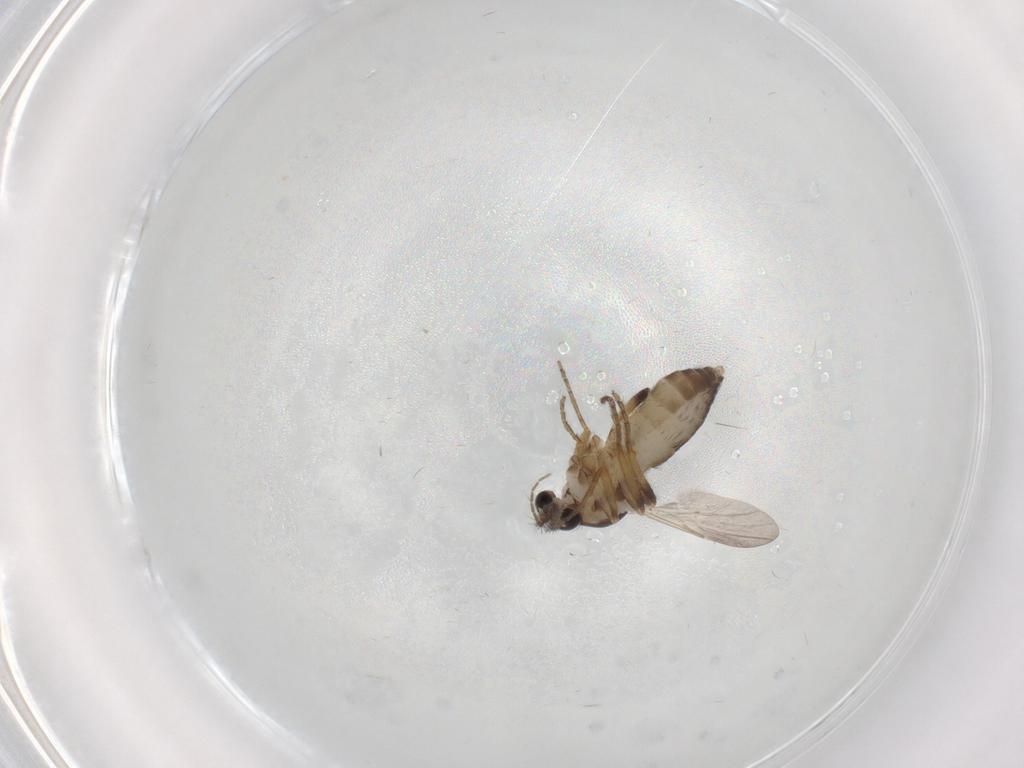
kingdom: Animalia
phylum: Arthropoda
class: Insecta
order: Diptera
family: Ceratopogonidae
